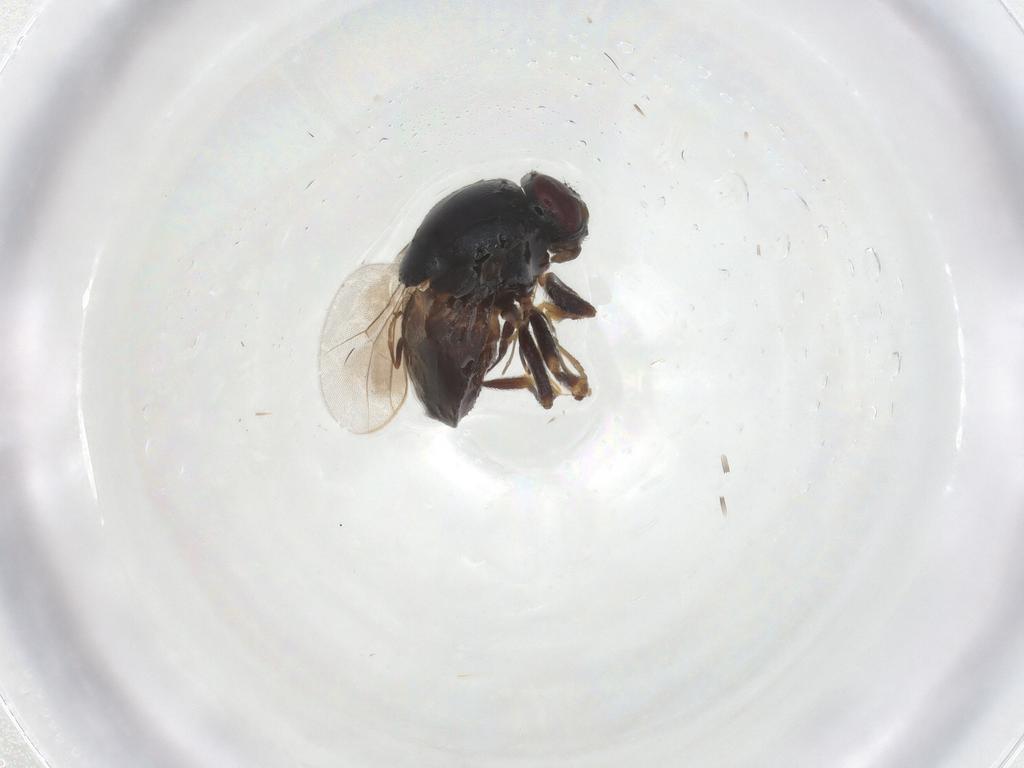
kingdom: Animalia
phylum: Arthropoda
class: Insecta
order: Diptera
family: Chloropidae
